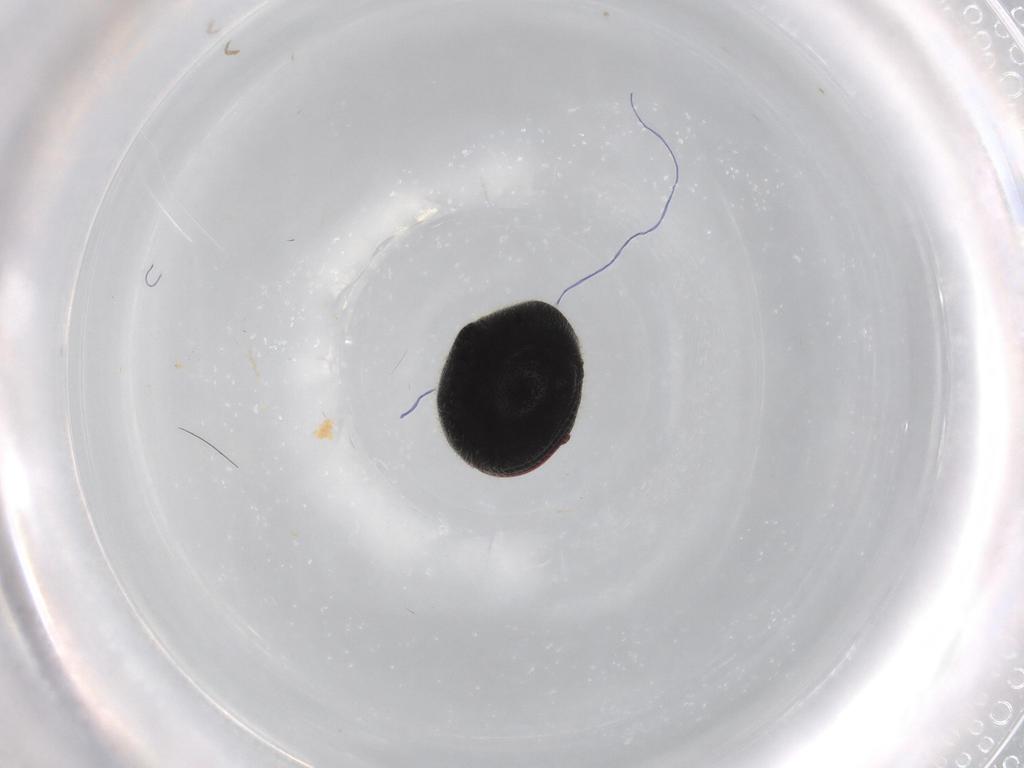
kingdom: Animalia
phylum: Arthropoda
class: Insecta
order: Coleoptera
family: Ptinidae
